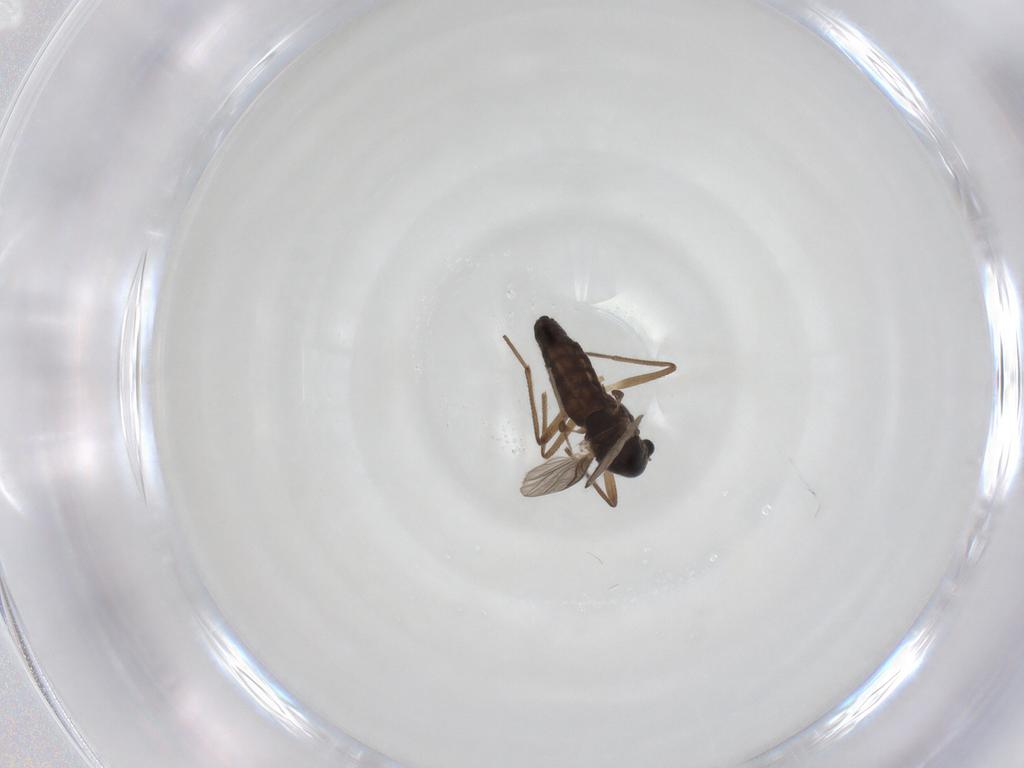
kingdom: Animalia
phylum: Arthropoda
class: Insecta
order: Diptera
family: Chironomidae
